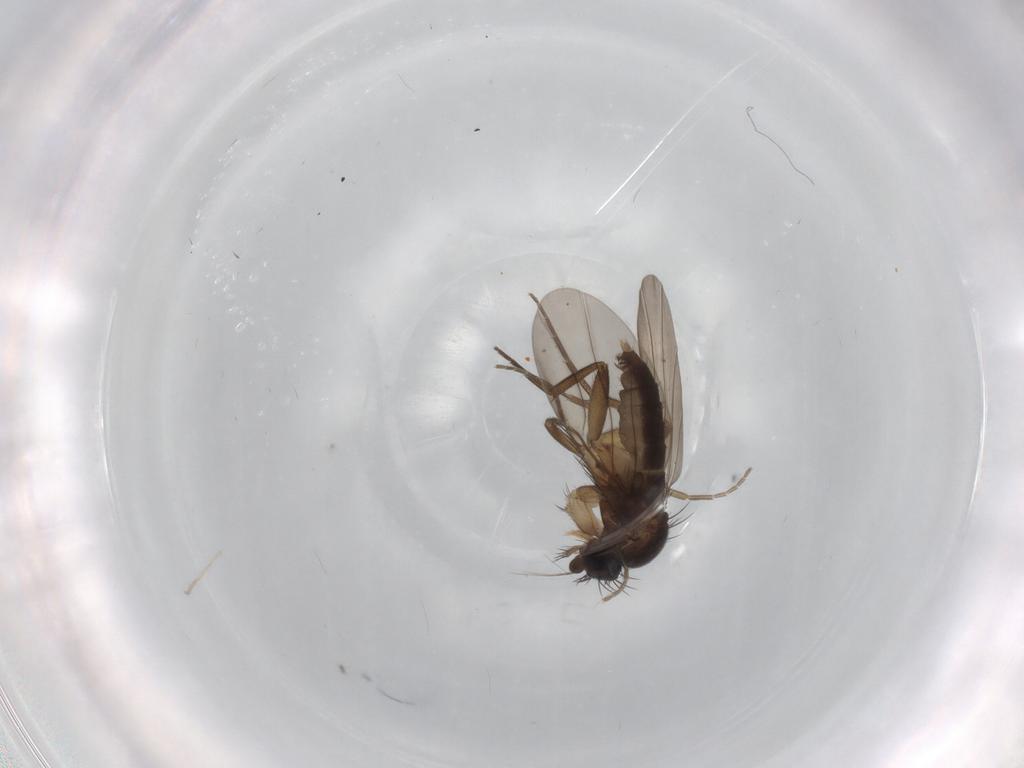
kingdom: Animalia
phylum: Arthropoda
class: Insecta
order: Diptera
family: Phoridae
